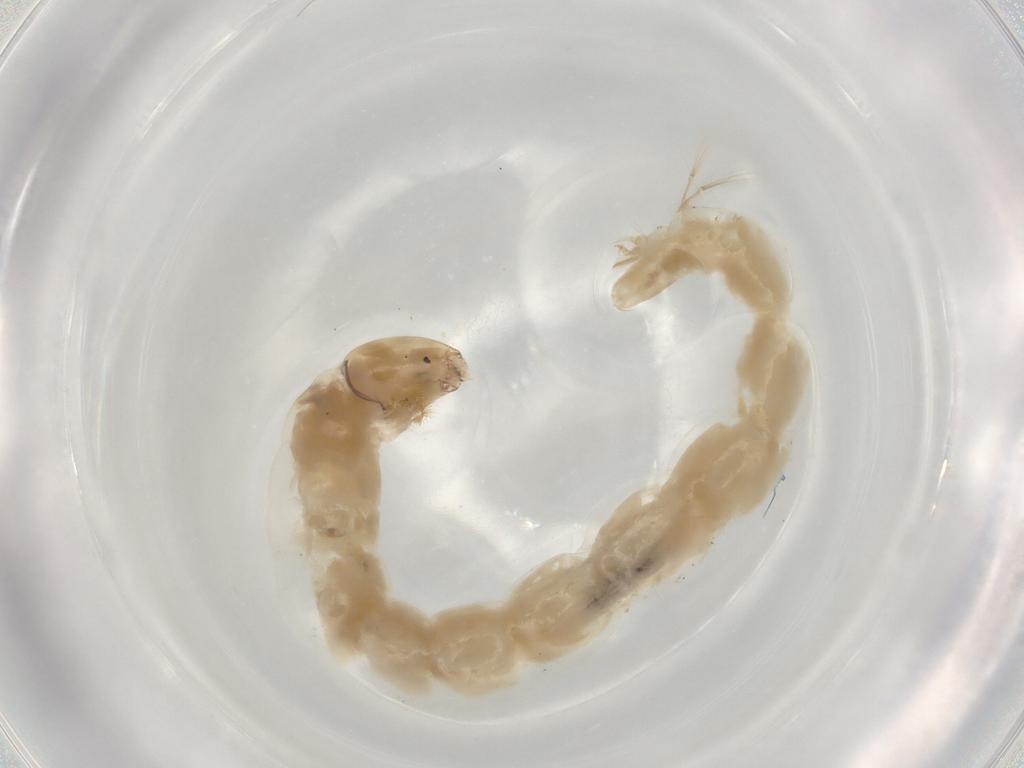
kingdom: Animalia
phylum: Arthropoda
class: Insecta
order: Diptera
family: Chironomidae
